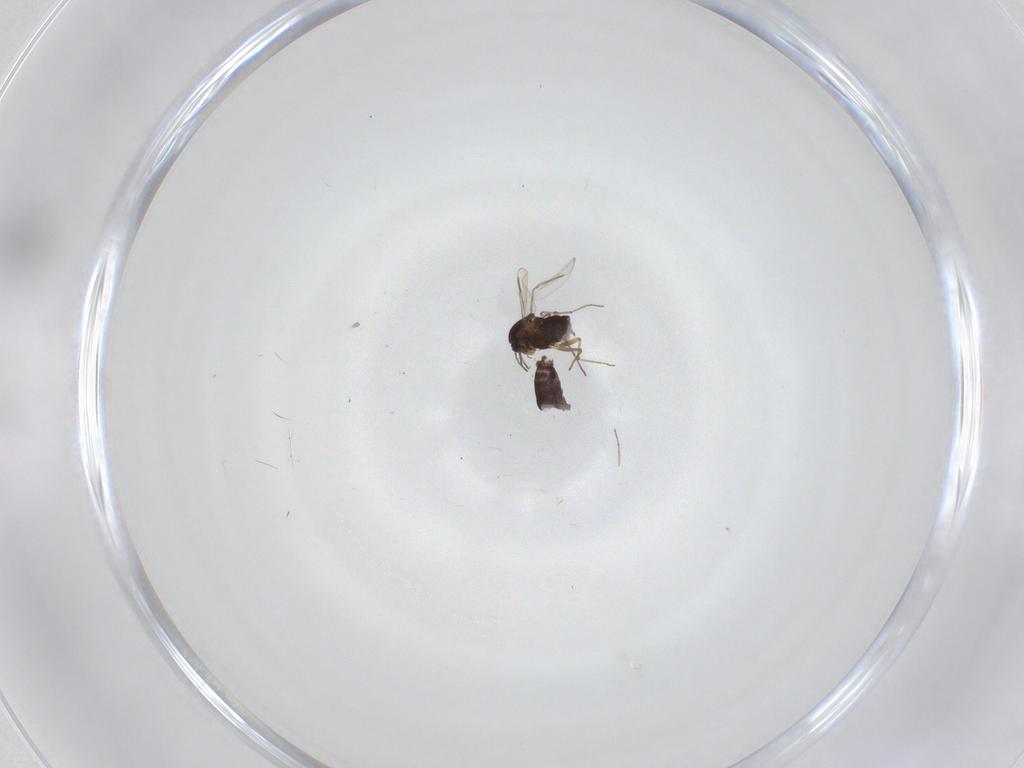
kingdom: Animalia
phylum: Arthropoda
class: Insecta
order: Diptera
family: Chironomidae
